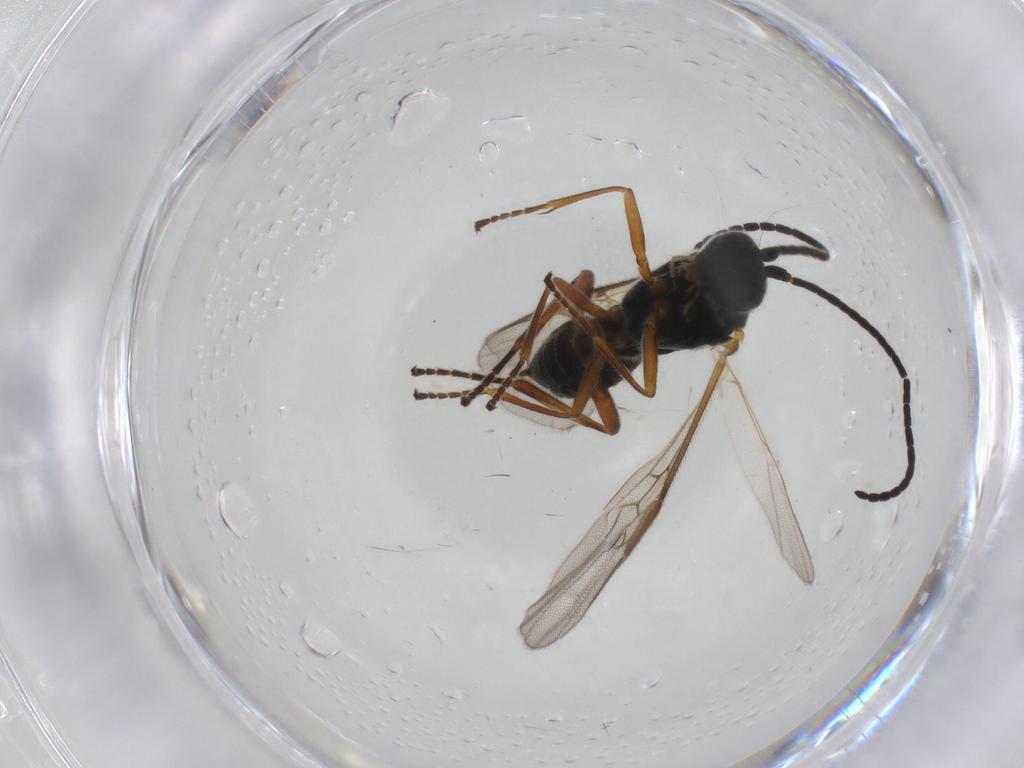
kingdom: Animalia
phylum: Arthropoda
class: Insecta
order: Hymenoptera
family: Braconidae
